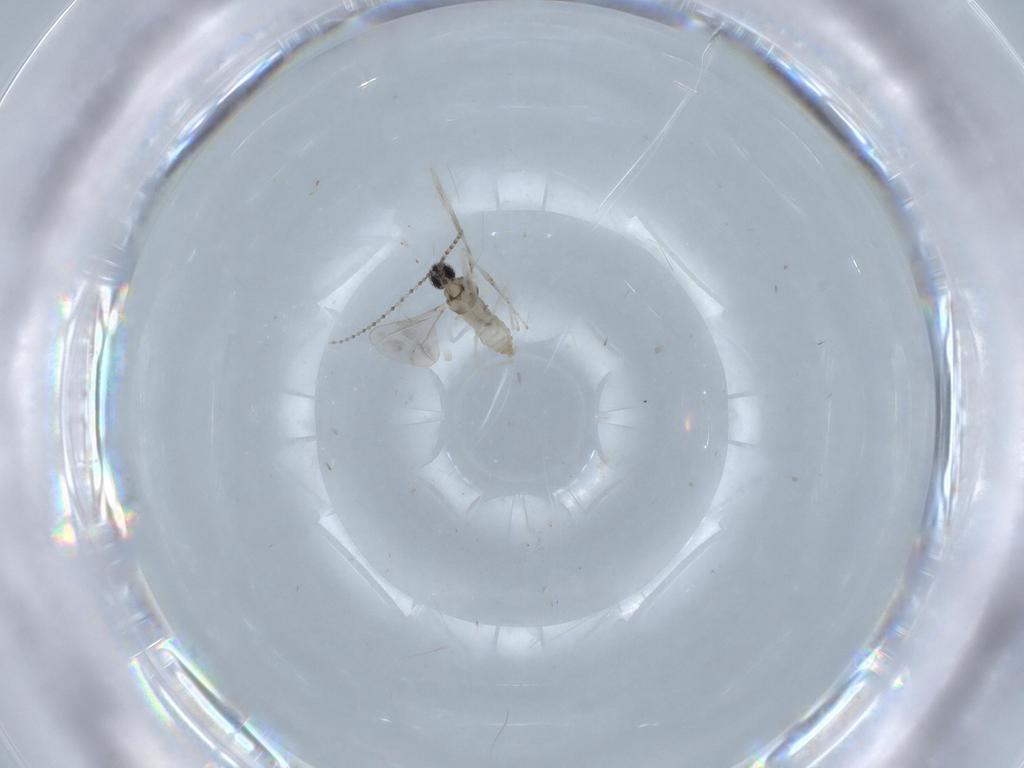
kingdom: Animalia
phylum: Arthropoda
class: Insecta
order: Diptera
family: Cecidomyiidae
